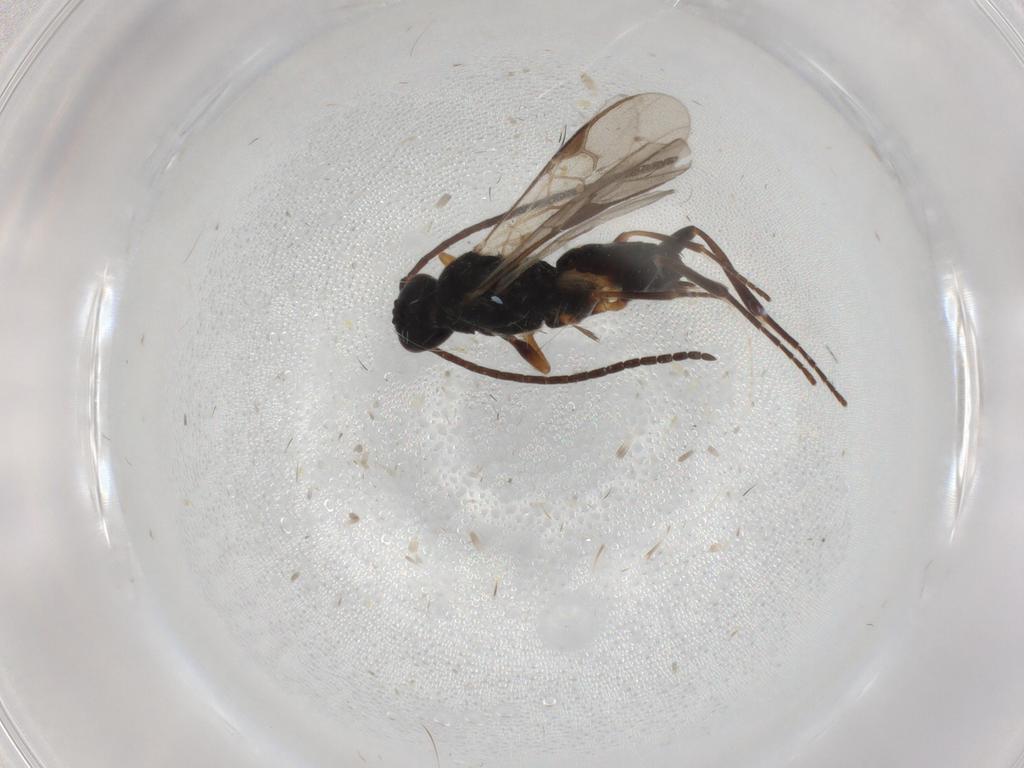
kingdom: Animalia
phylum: Arthropoda
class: Insecta
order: Hymenoptera
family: Braconidae
